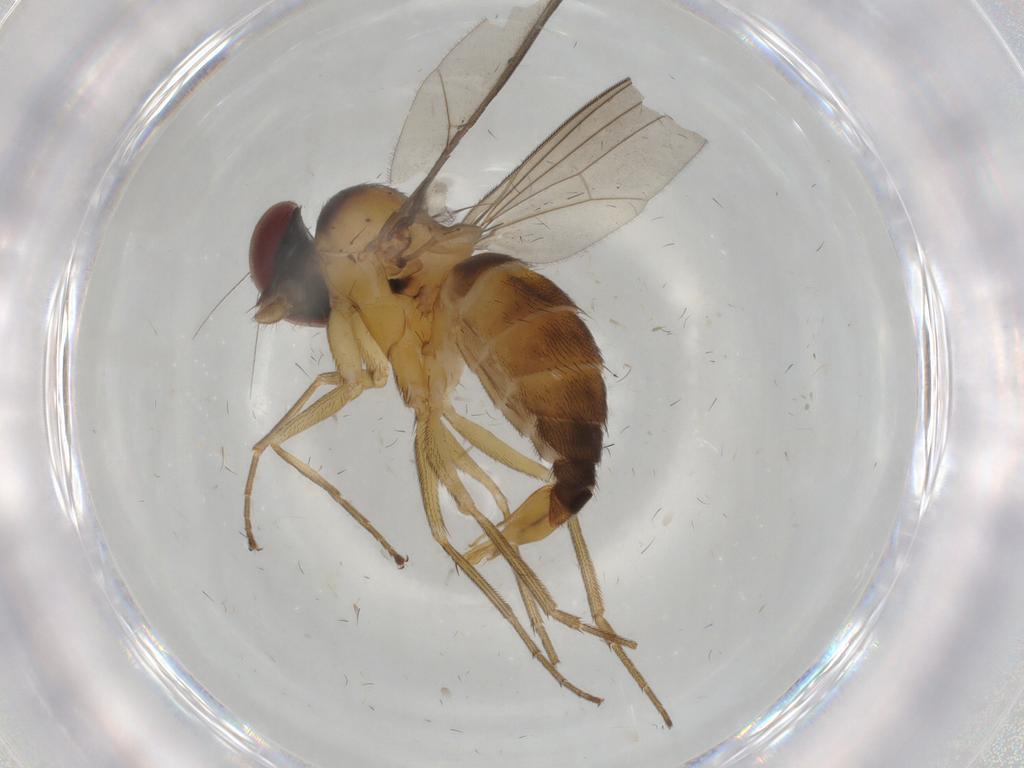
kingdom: Animalia
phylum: Arthropoda
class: Insecta
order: Diptera
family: Dolichopodidae
